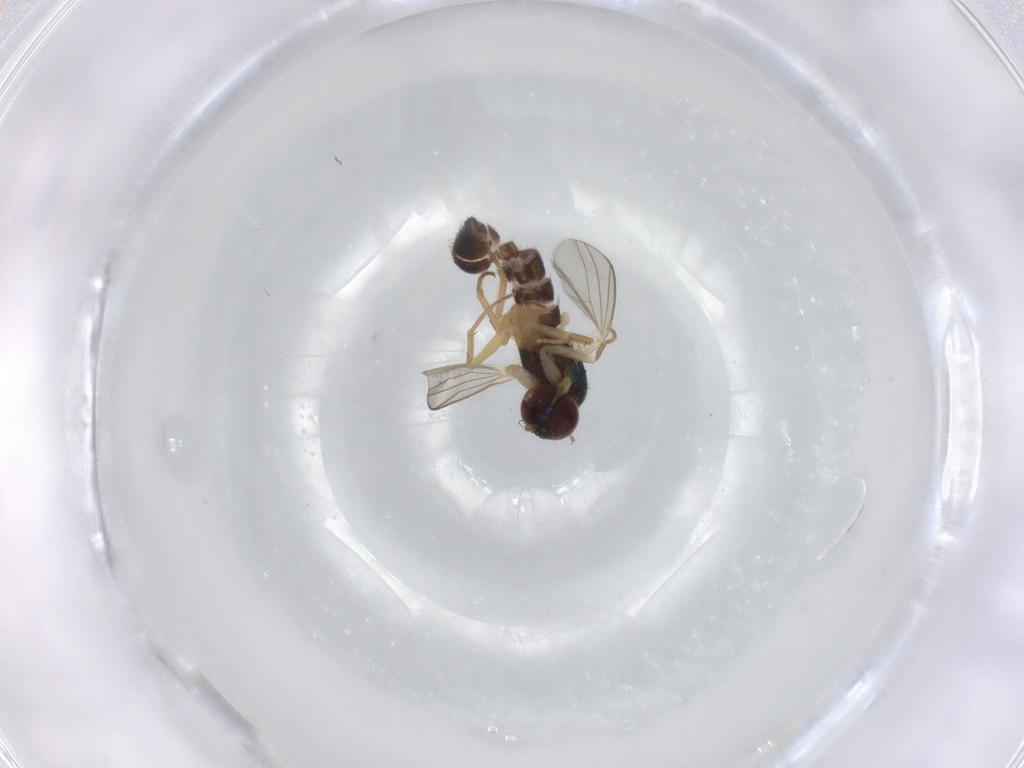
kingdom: Animalia
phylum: Arthropoda
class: Insecta
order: Diptera
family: Dolichopodidae
